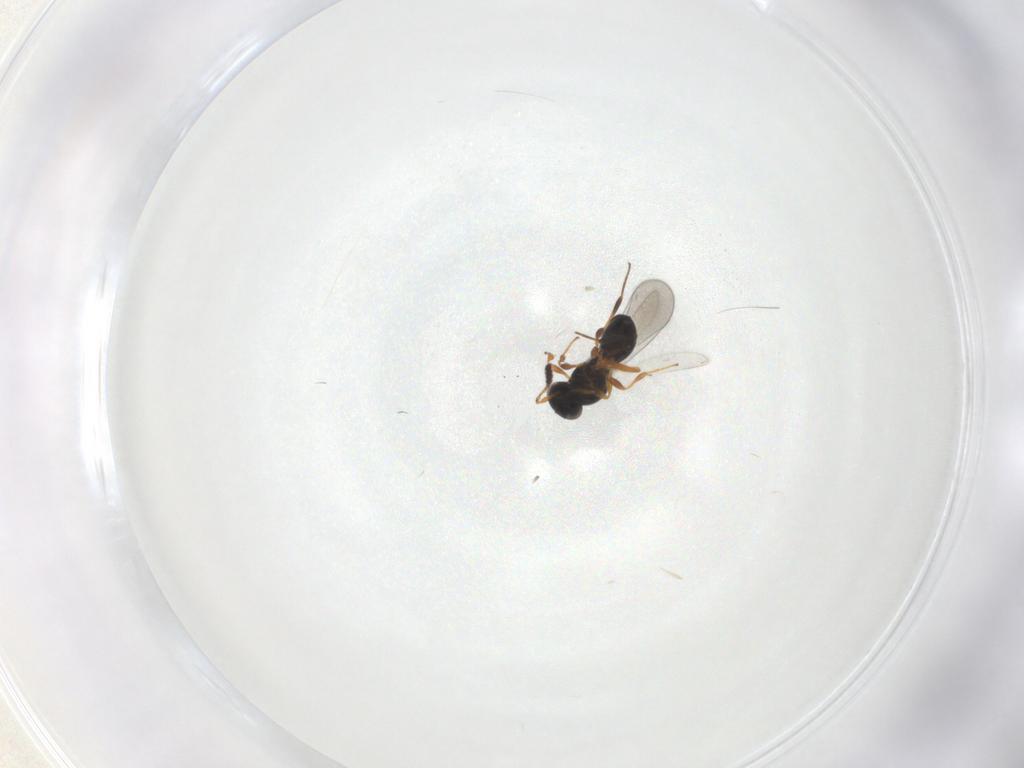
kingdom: Animalia
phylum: Arthropoda
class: Insecta
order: Hymenoptera
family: Platygastridae
